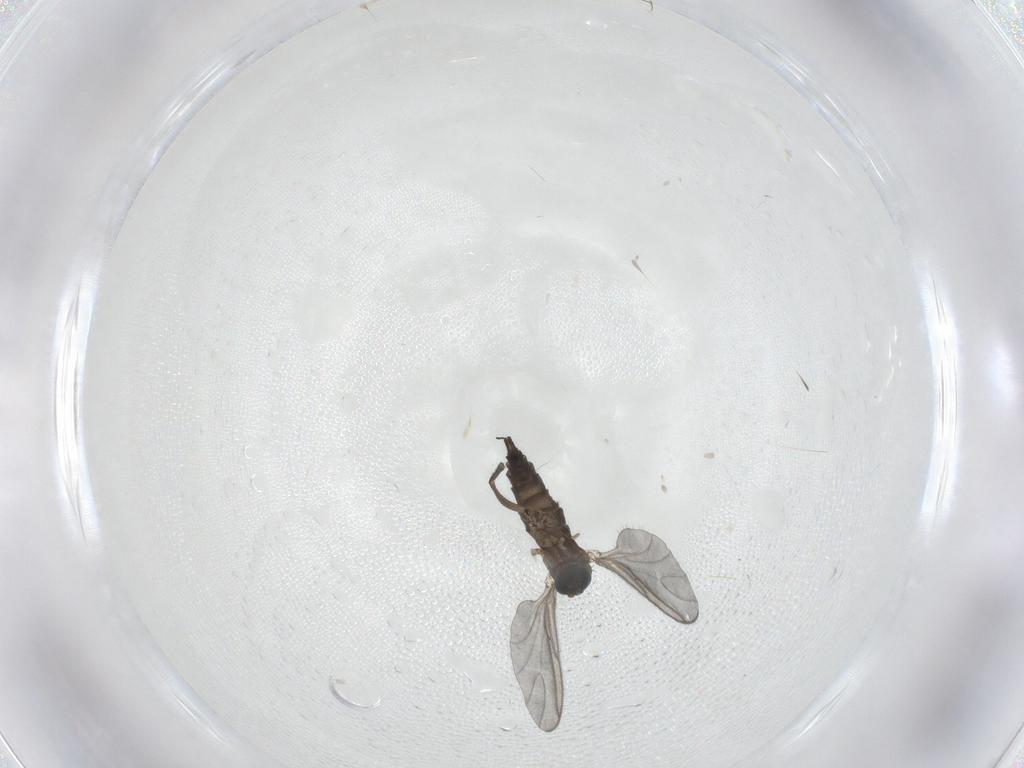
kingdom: Animalia
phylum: Arthropoda
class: Insecta
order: Diptera
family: Sciaridae
